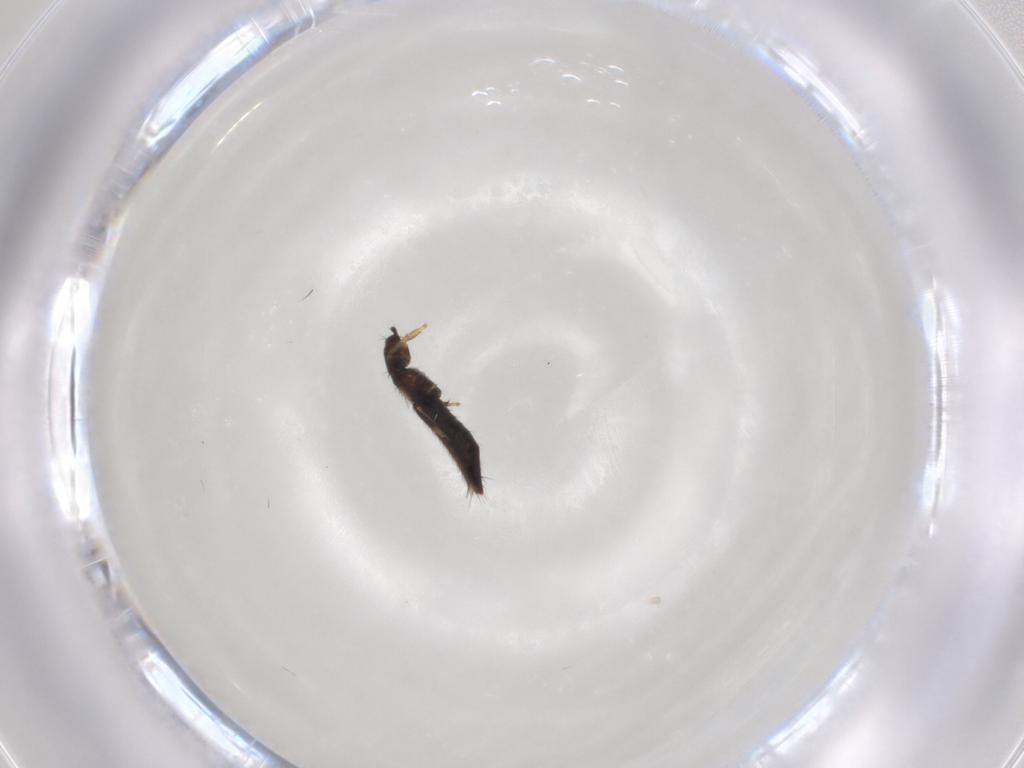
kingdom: Animalia
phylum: Arthropoda
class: Insecta
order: Thysanoptera
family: Thripidae
